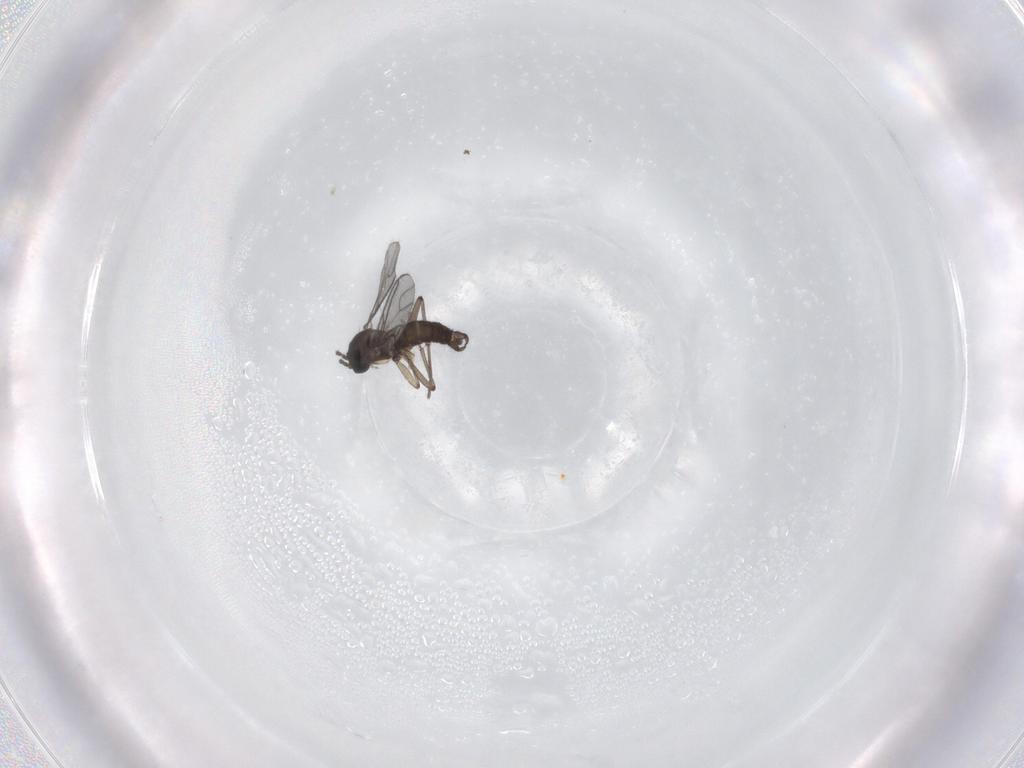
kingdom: Animalia
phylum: Arthropoda
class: Insecta
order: Diptera
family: Sciaridae
